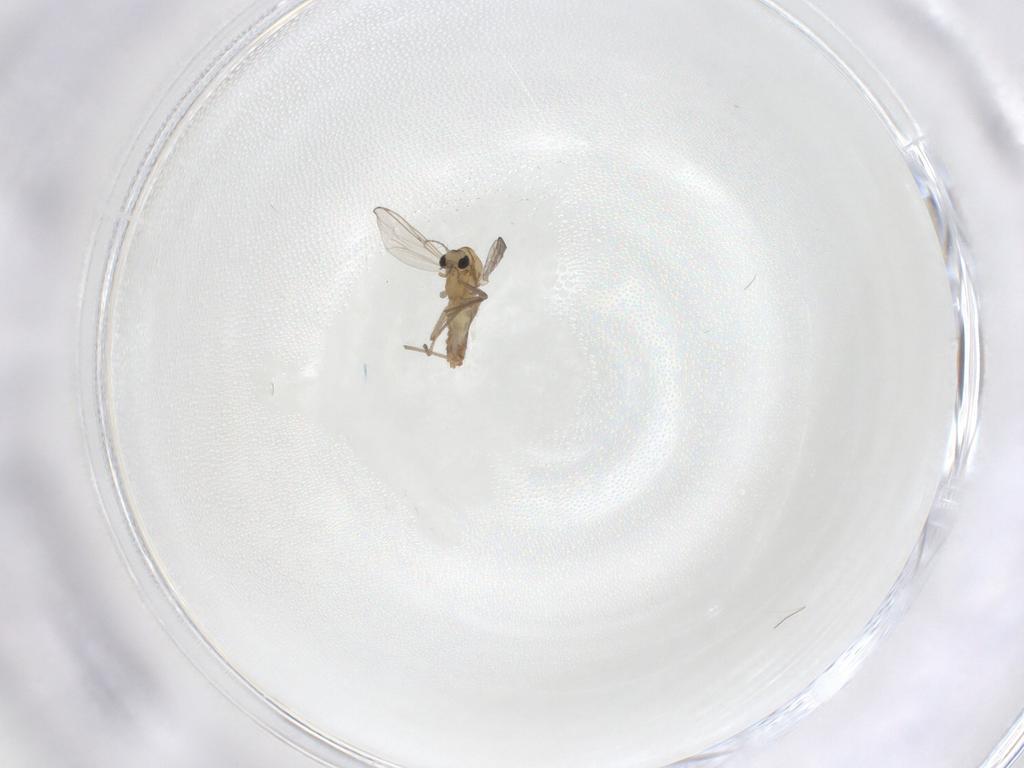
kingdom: Animalia
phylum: Arthropoda
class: Insecta
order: Diptera
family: Chironomidae
